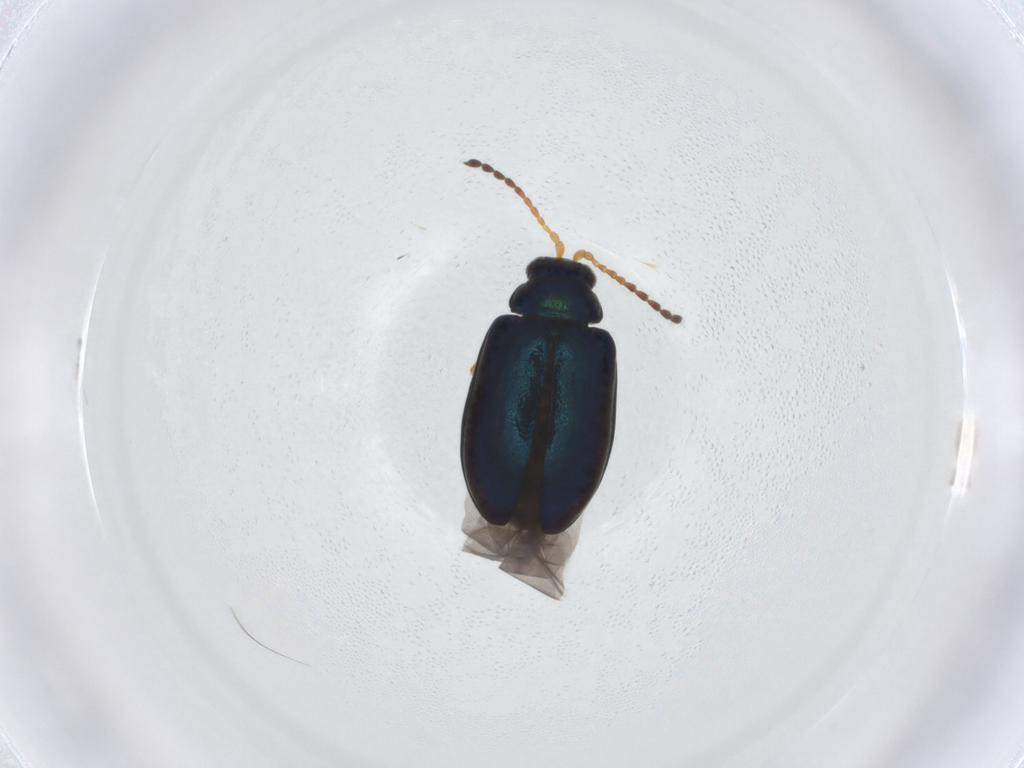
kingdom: Animalia
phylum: Arthropoda
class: Insecta
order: Coleoptera
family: Chrysomelidae
